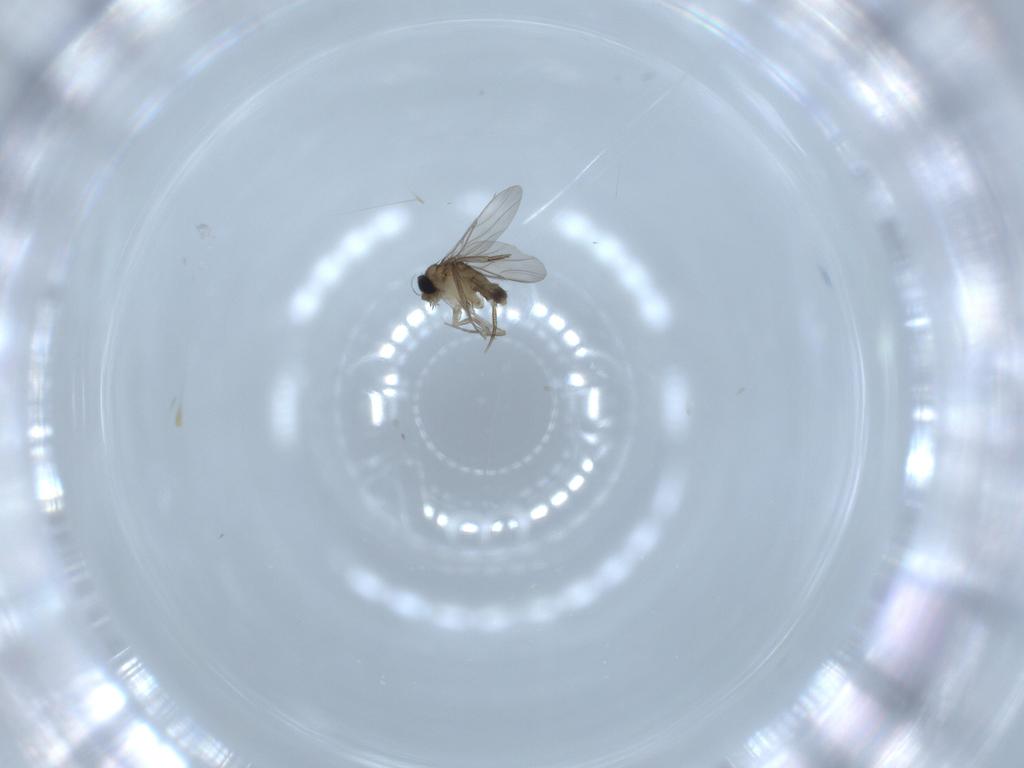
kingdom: Animalia
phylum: Arthropoda
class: Insecta
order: Diptera
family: Phoridae
